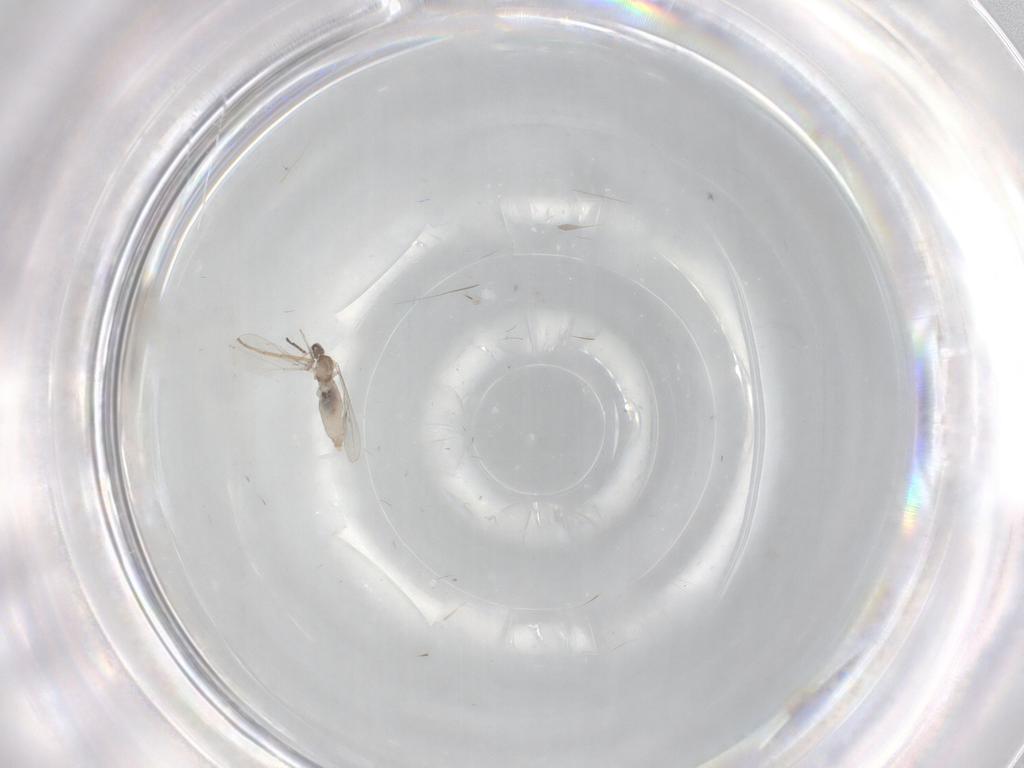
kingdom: Animalia
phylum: Arthropoda
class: Insecta
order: Diptera
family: Cecidomyiidae
